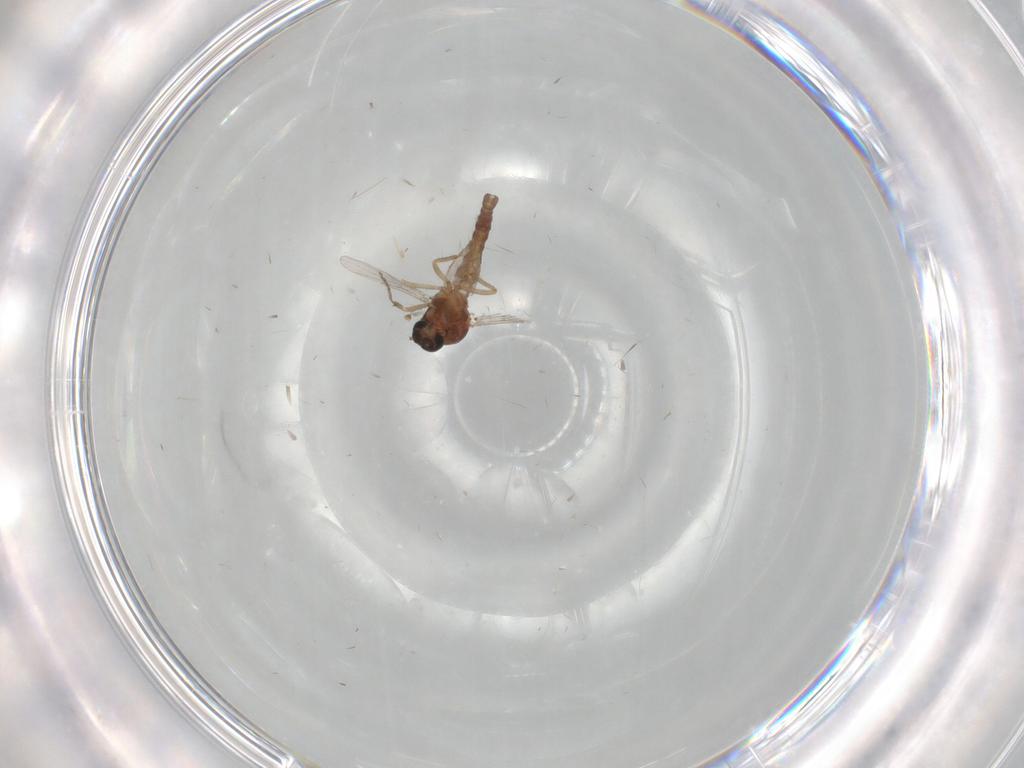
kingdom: Animalia
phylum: Arthropoda
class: Insecta
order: Diptera
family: Ceratopogonidae
